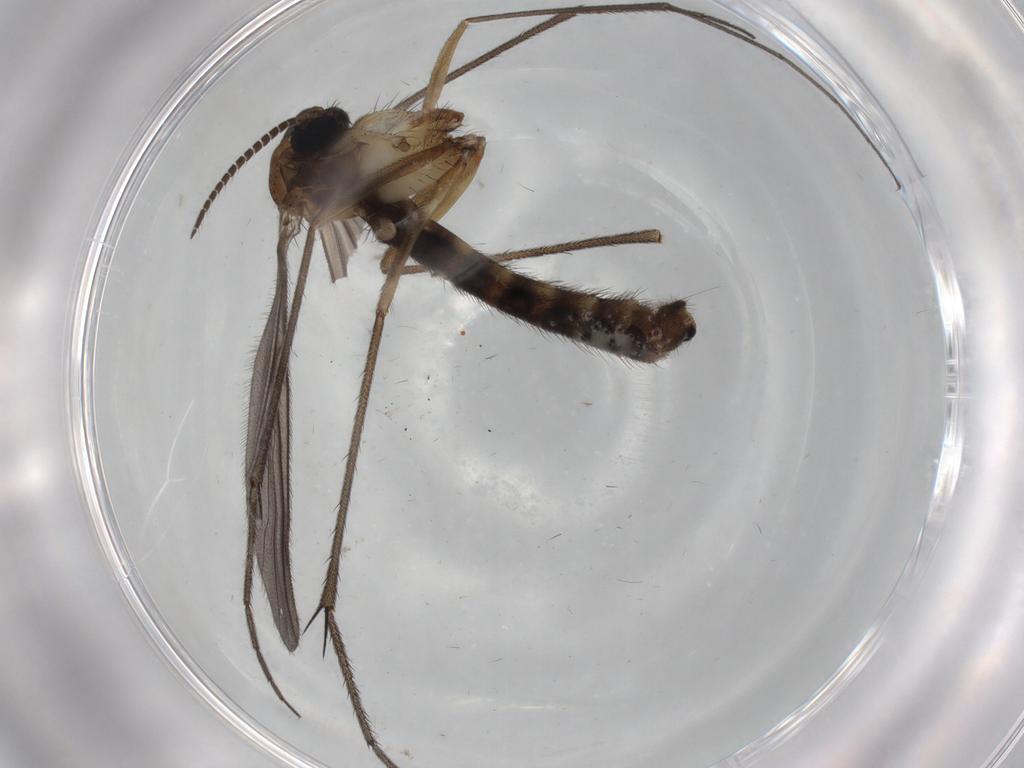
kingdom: Animalia
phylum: Arthropoda
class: Insecta
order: Diptera
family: Ditomyiidae
